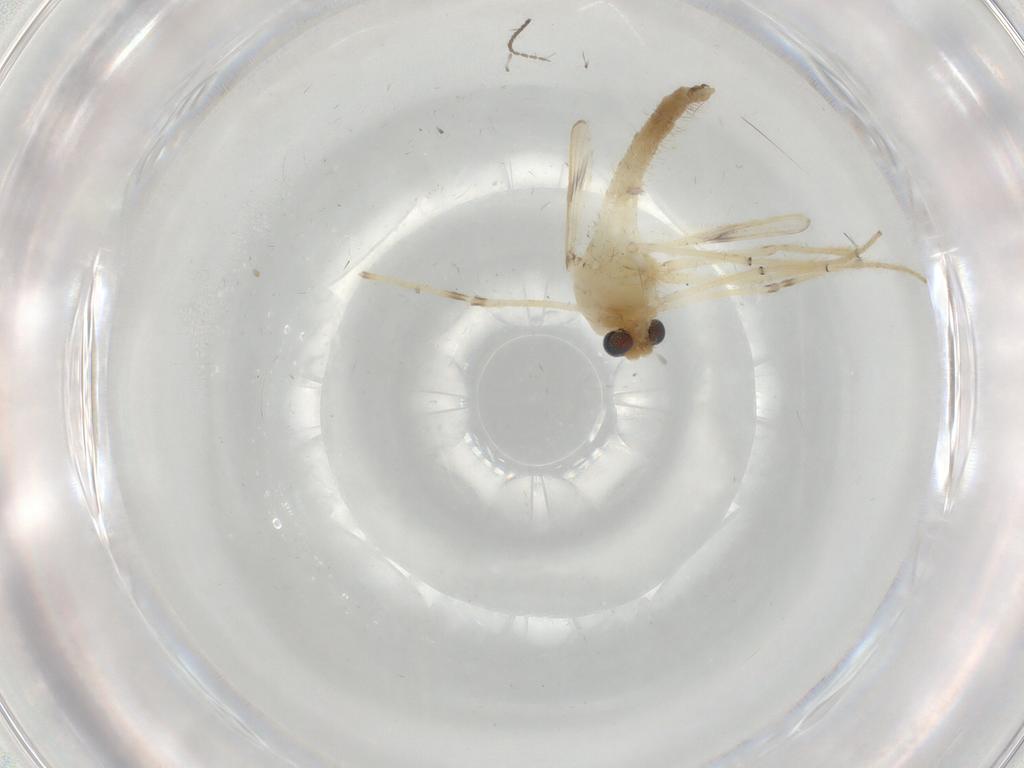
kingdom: Animalia
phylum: Arthropoda
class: Insecta
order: Diptera
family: Chironomidae
